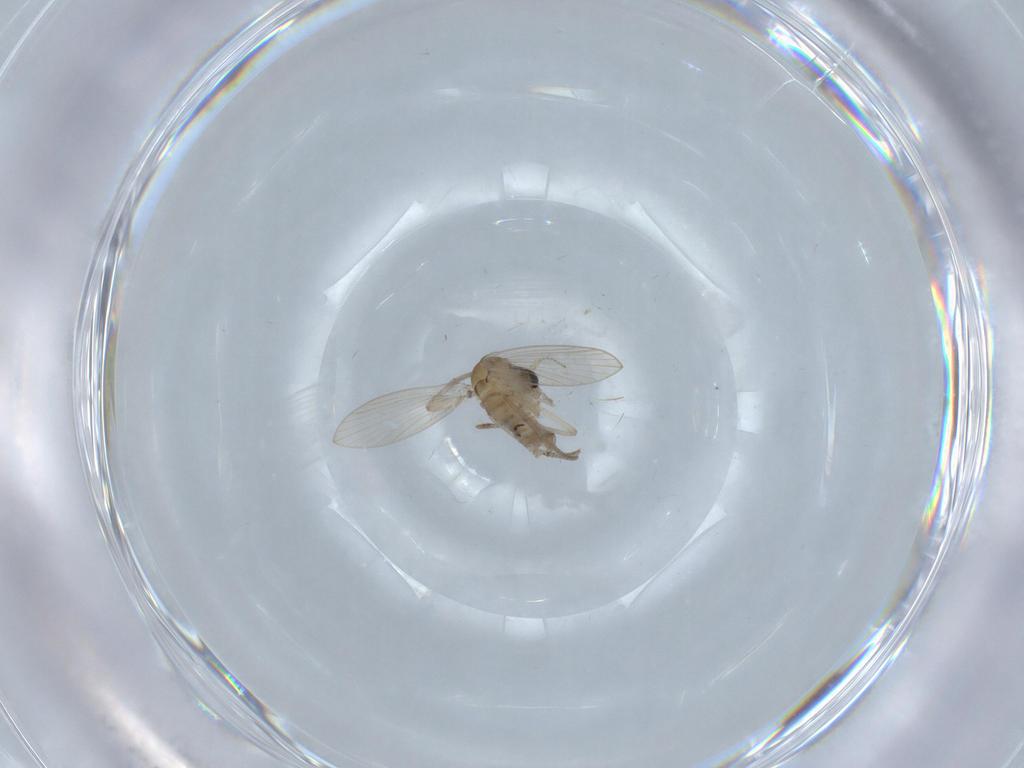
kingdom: Animalia
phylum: Arthropoda
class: Insecta
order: Diptera
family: Psychodidae
